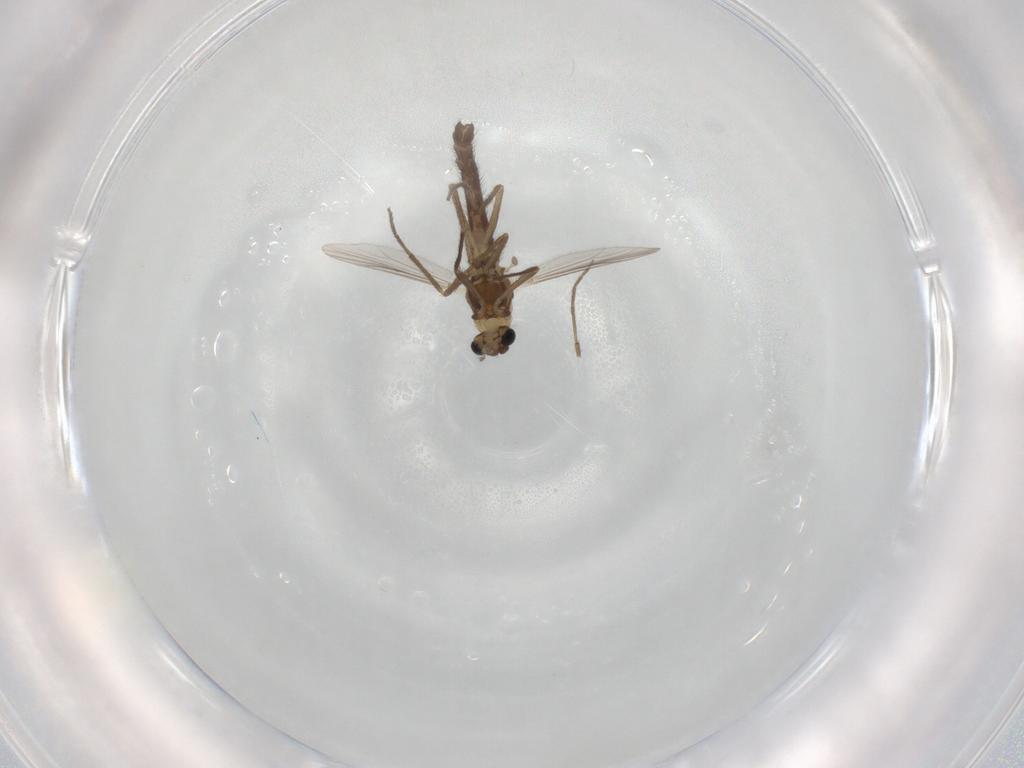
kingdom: Animalia
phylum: Arthropoda
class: Insecta
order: Diptera
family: Chironomidae
